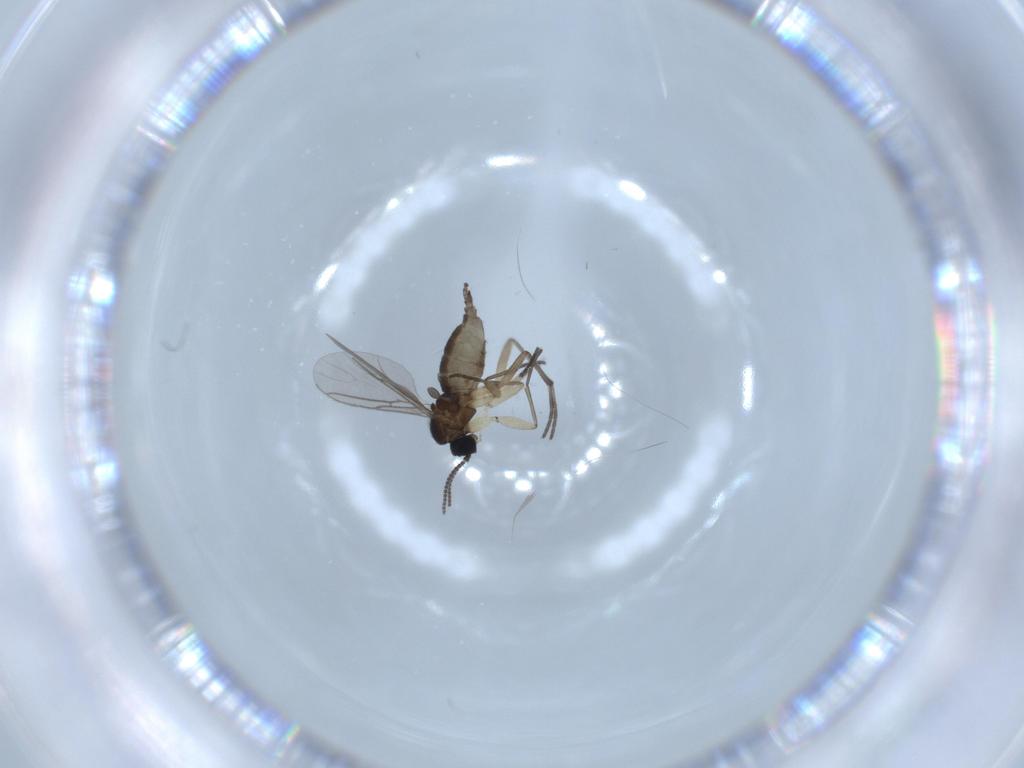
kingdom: Animalia
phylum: Arthropoda
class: Insecta
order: Diptera
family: Sciaridae
